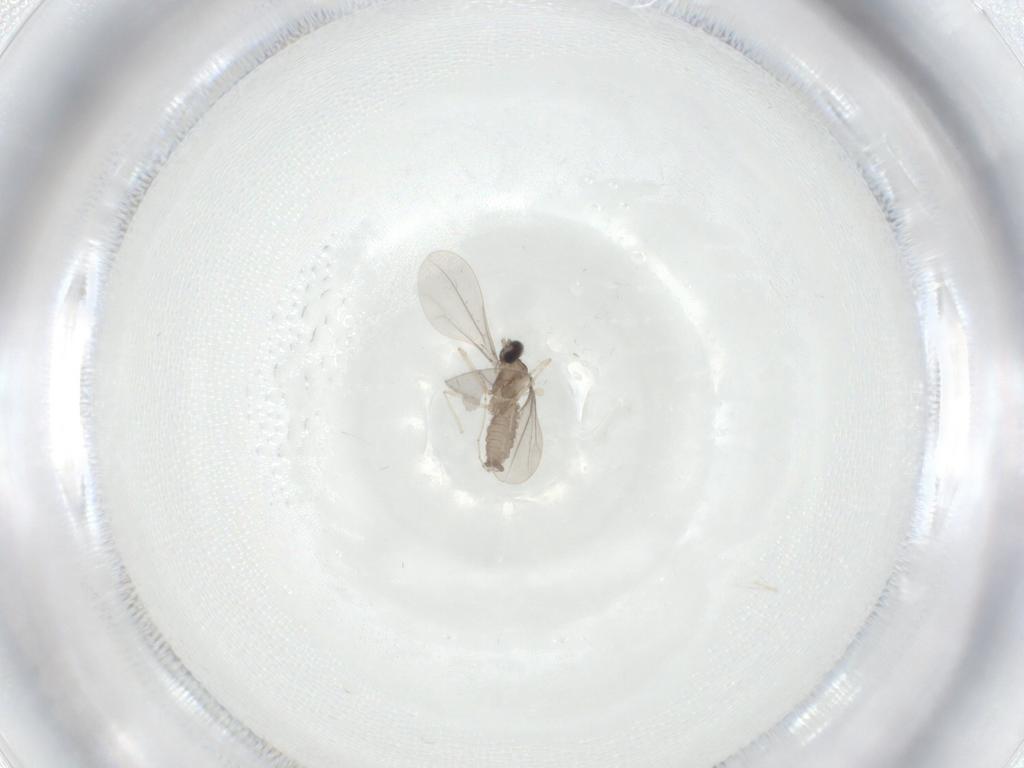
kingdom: Animalia
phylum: Arthropoda
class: Insecta
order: Diptera
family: Cecidomyiidae
